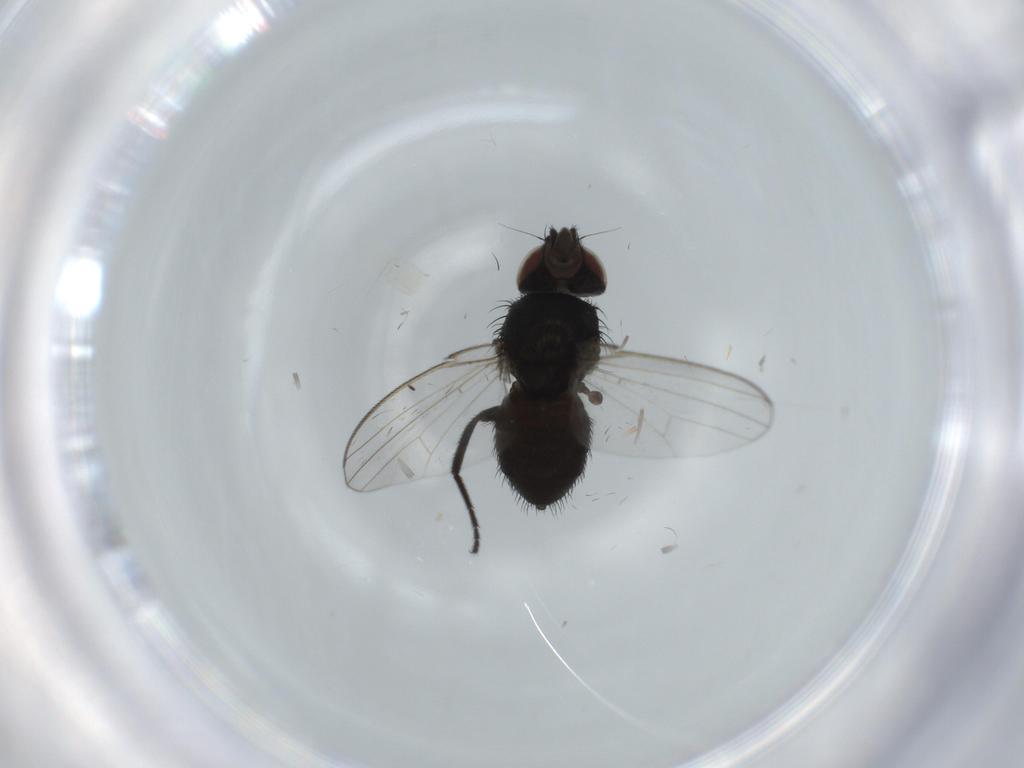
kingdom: Animalia
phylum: Arthropoda
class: Insecta
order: Diptera
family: Milichiidae
